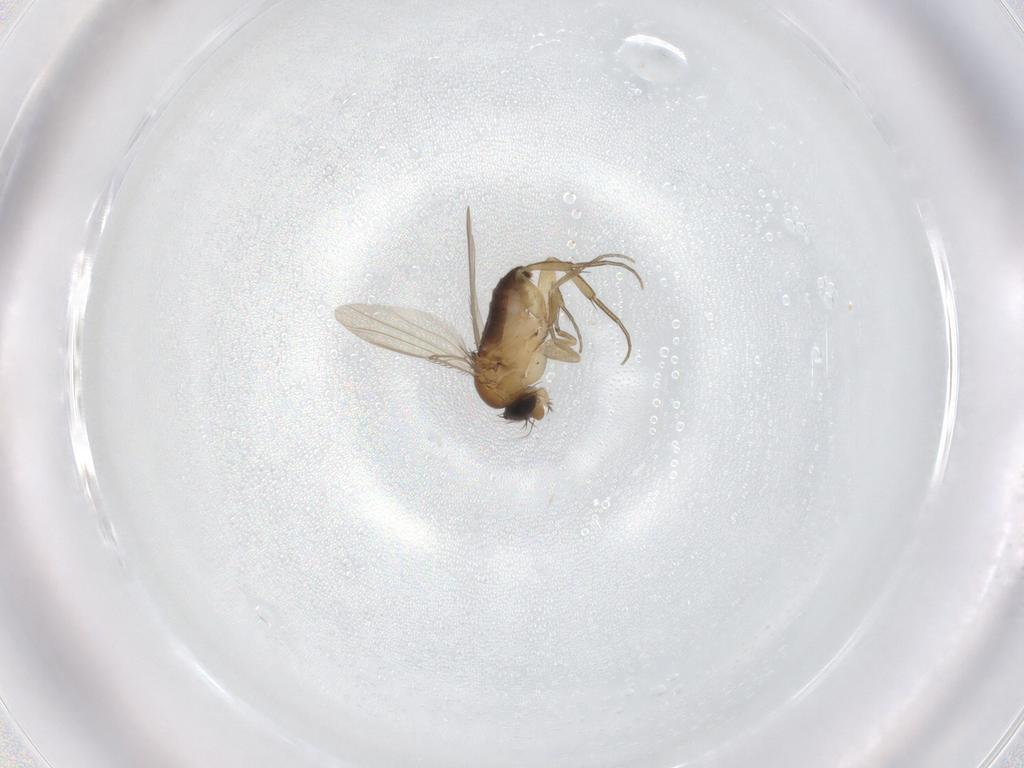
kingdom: Animalia
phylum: Arthropoda
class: Insecta
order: Diptera
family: Phoridae
